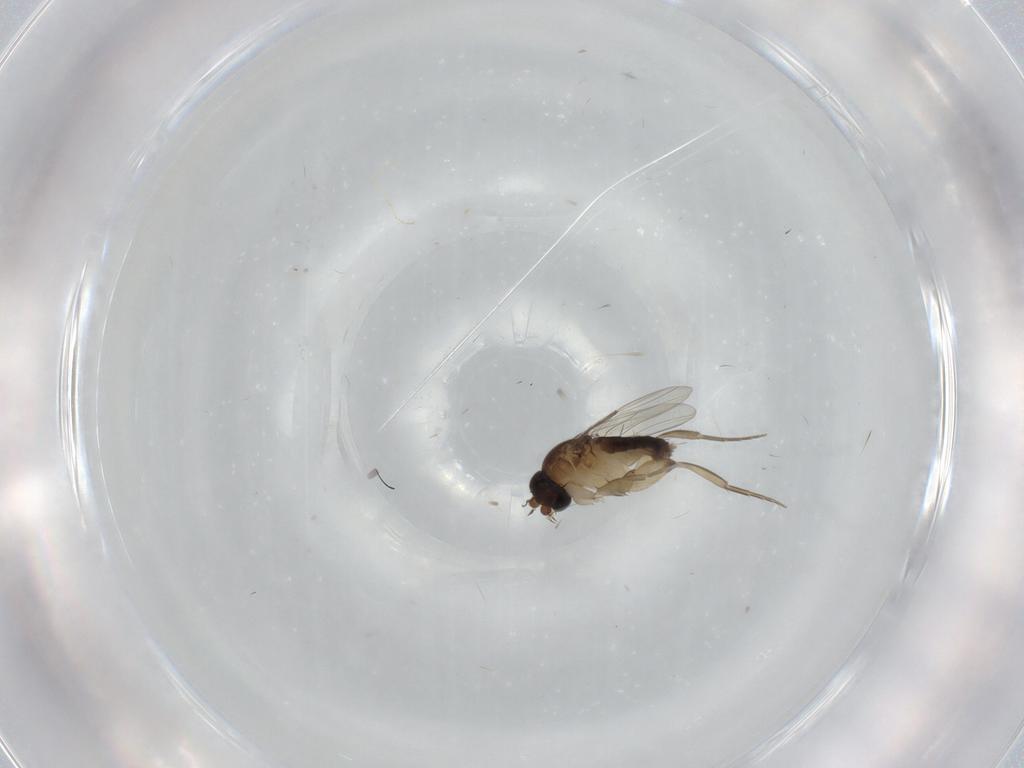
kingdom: Animalia
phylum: Arthropoda
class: Insecta
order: Diptera
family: Phoridae
